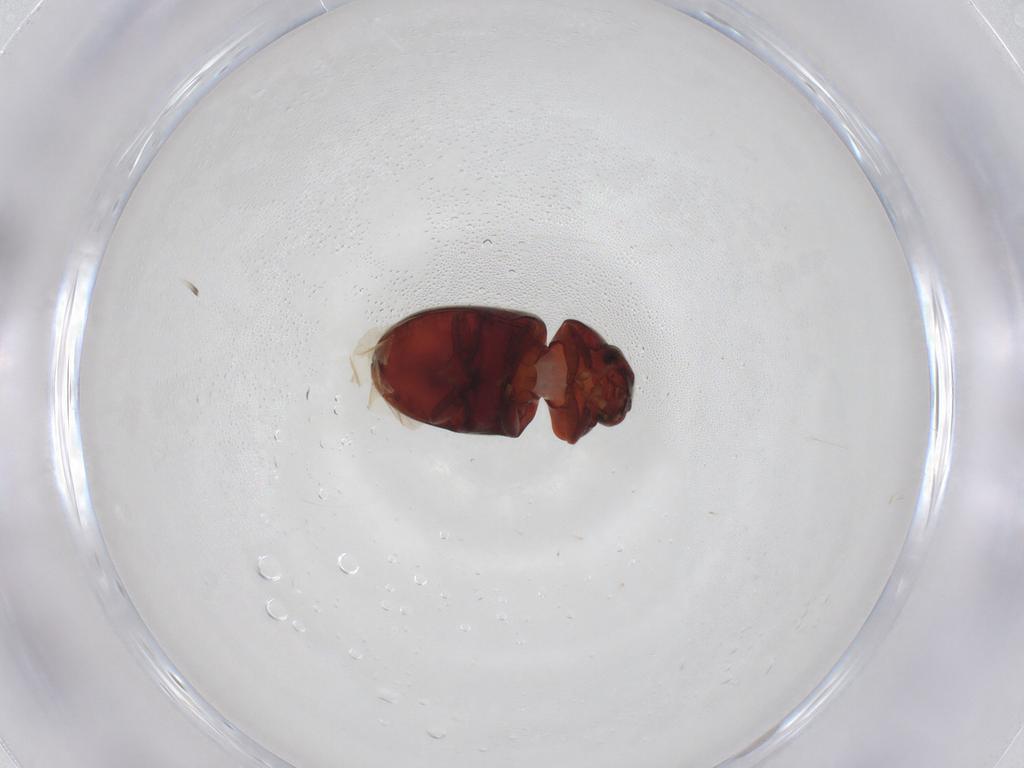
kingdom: Animalia
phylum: Arthropoda
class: Insecta
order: Coleoptera
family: Ptinidae
